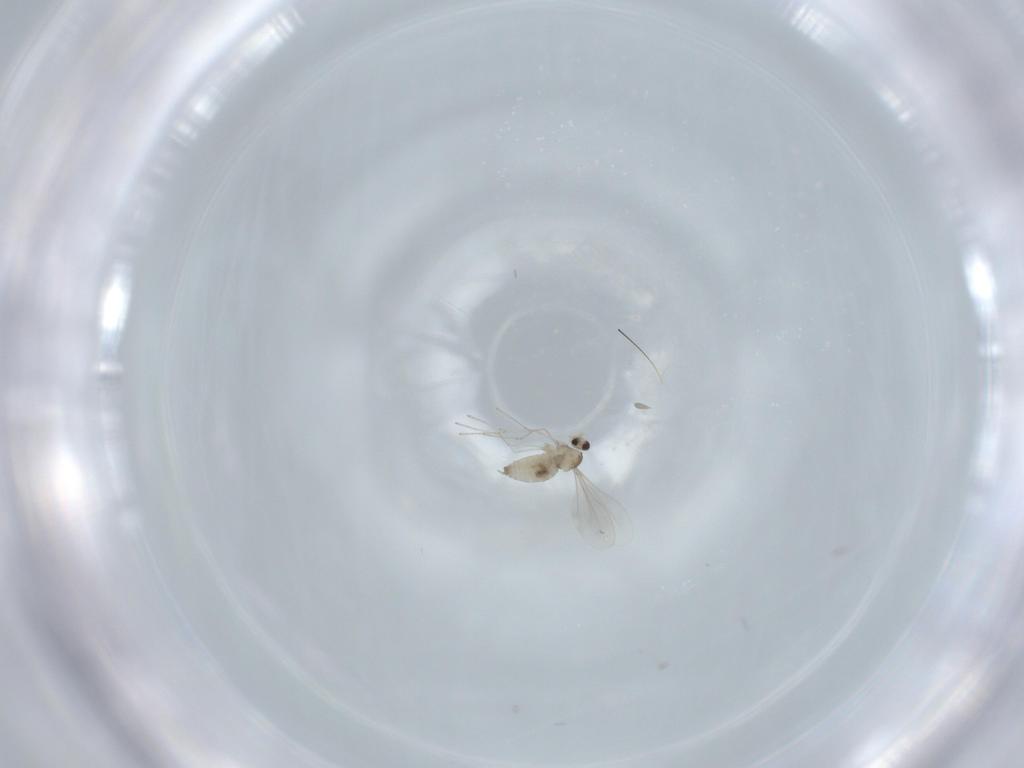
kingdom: Animalia
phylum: Arthropoda
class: Insecta
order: Diptera
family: Cecidomyiidae
